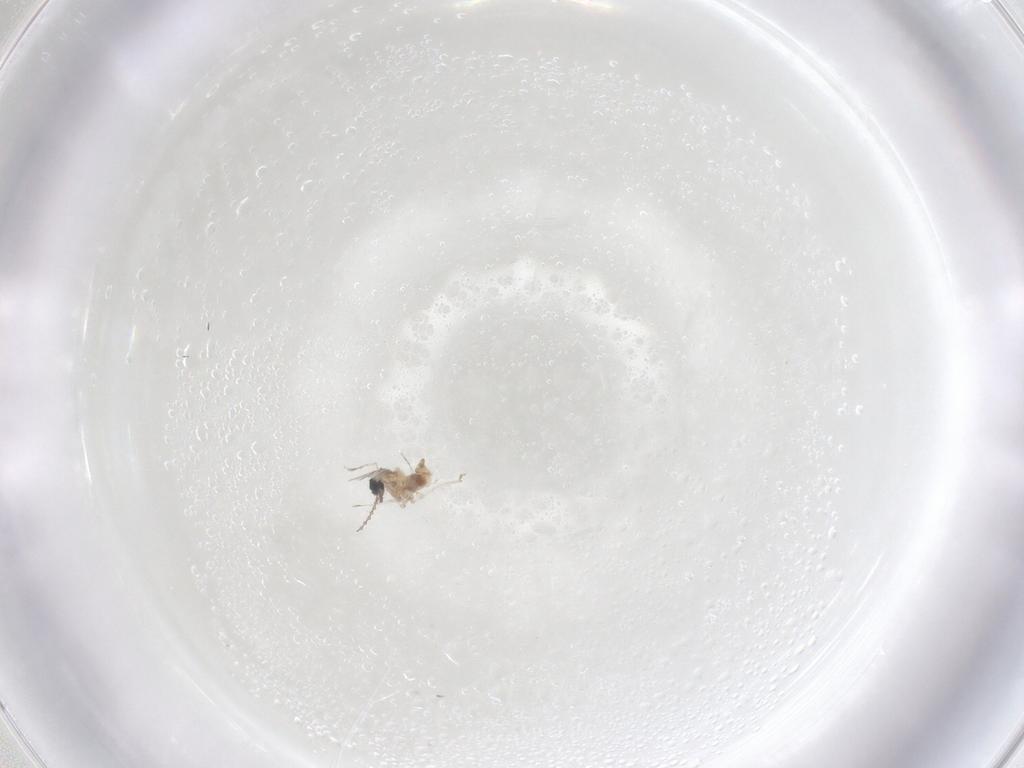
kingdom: Animalia
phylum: Arthropoda
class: Insecta
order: Diptera
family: Cecidomyiidae
